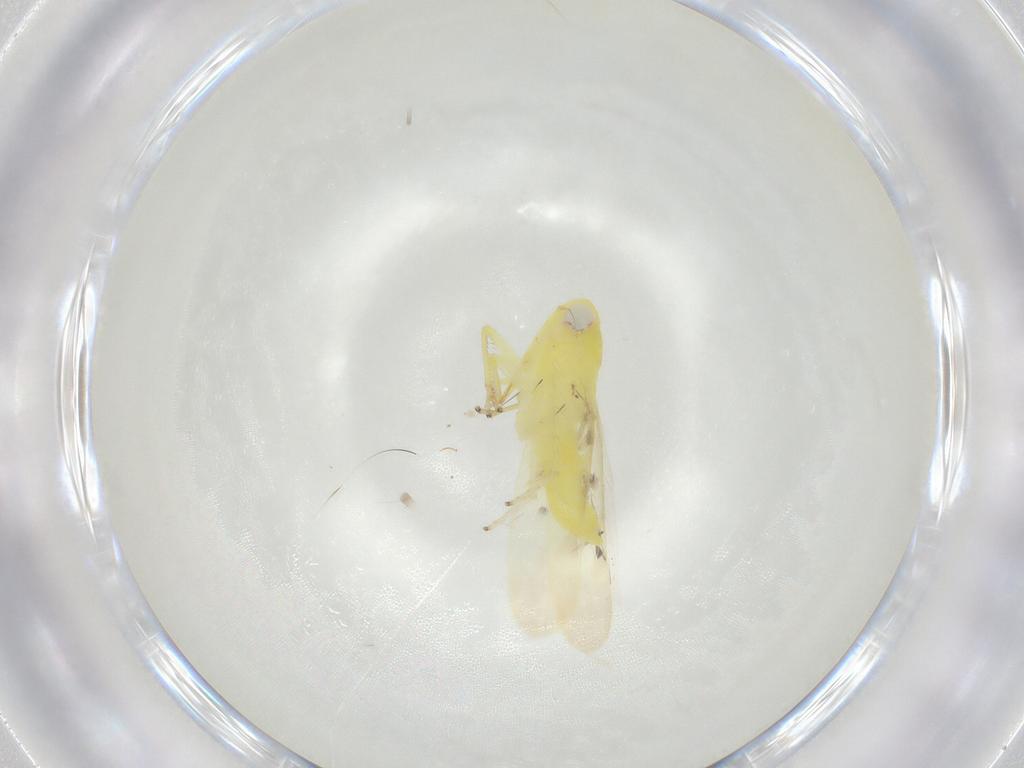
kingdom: Animalia
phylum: Arthropoda
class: Insecta
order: Hemiptera
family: Cicadellidae
